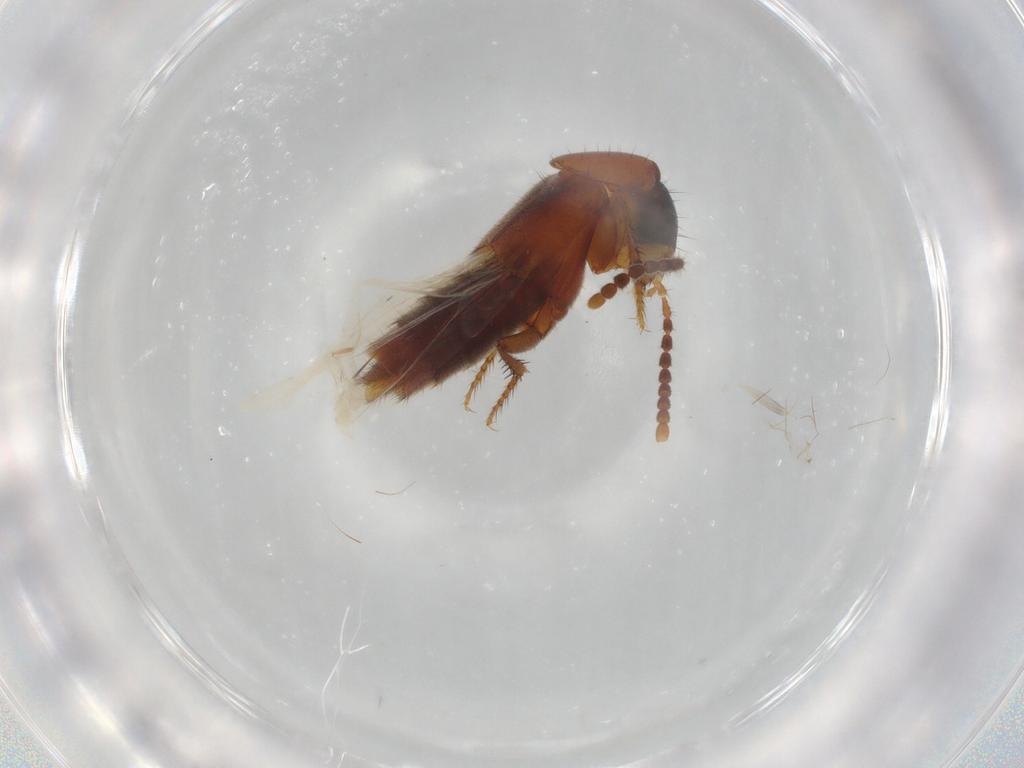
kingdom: Animalia
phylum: Arthropoda
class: Insecta
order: Coleoptera
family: Staphylinidae
